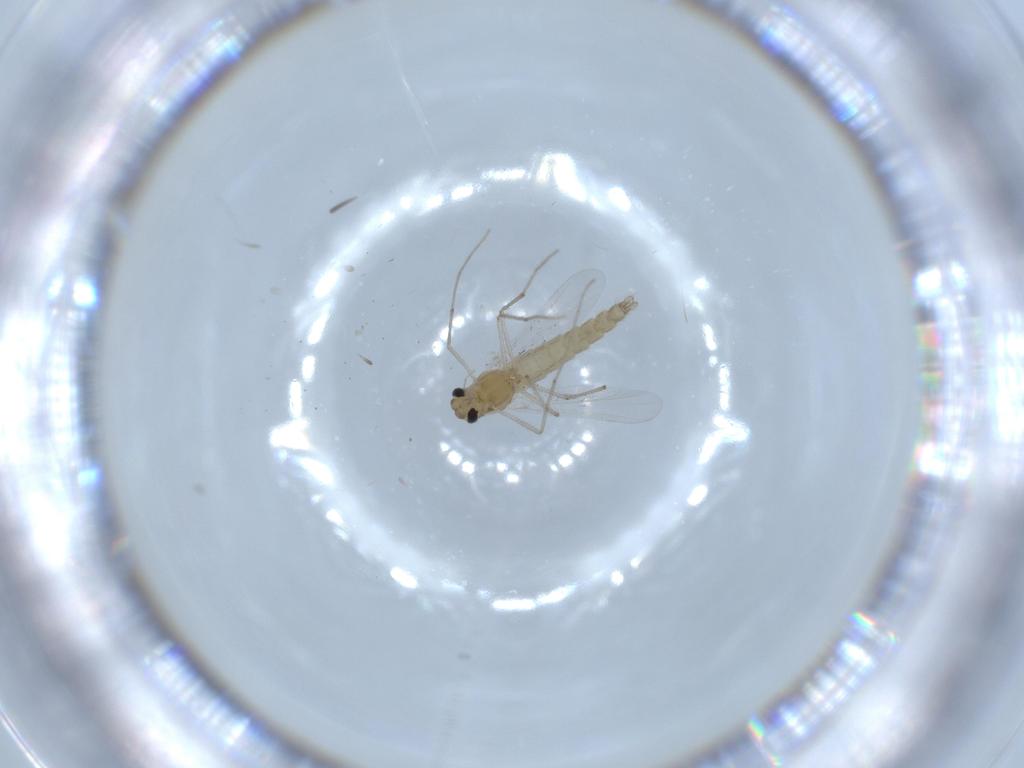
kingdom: Animalia
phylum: Arthropoda
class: Insecta
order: Diptera
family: Chironomidae
